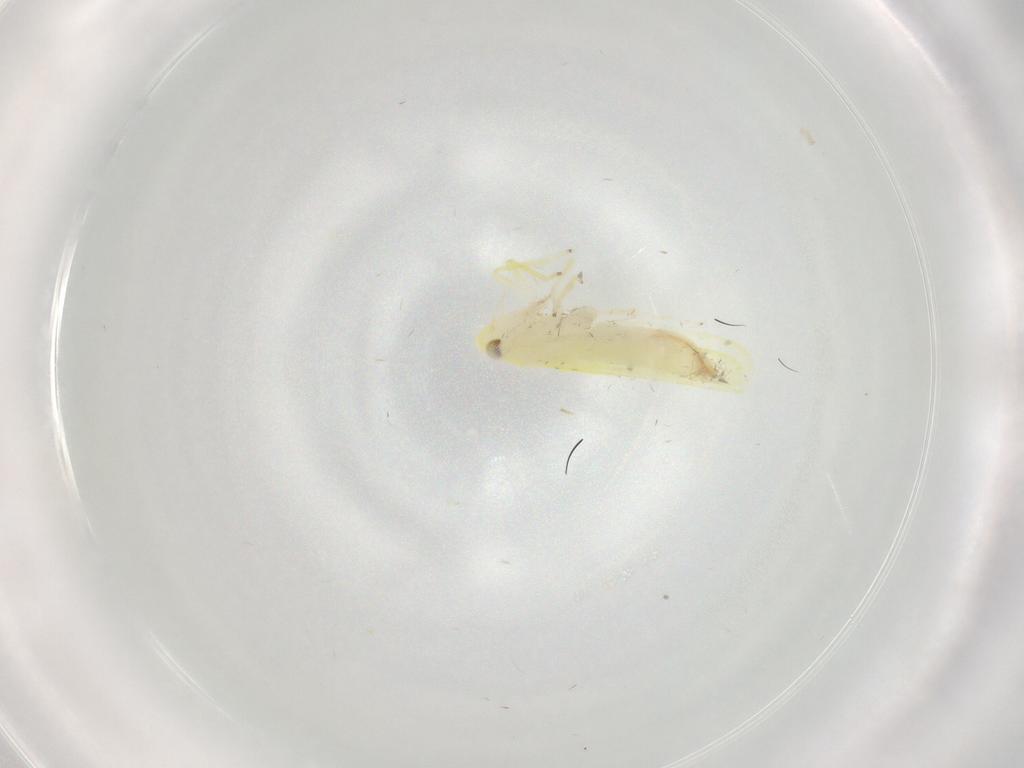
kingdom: Animalia
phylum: Arthropoda
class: Insecta
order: Hemiptera
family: Cicadellidae
